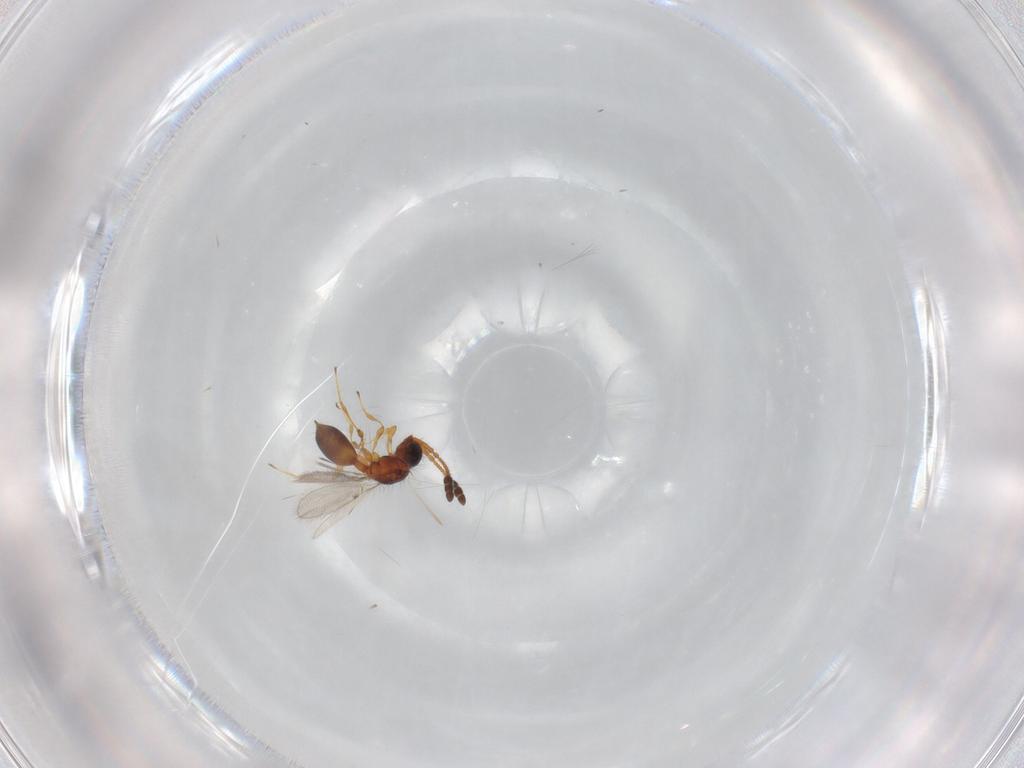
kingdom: Animalia
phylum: Arthropoda
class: Insecta
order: Hymenoptera
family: Diapriidae
